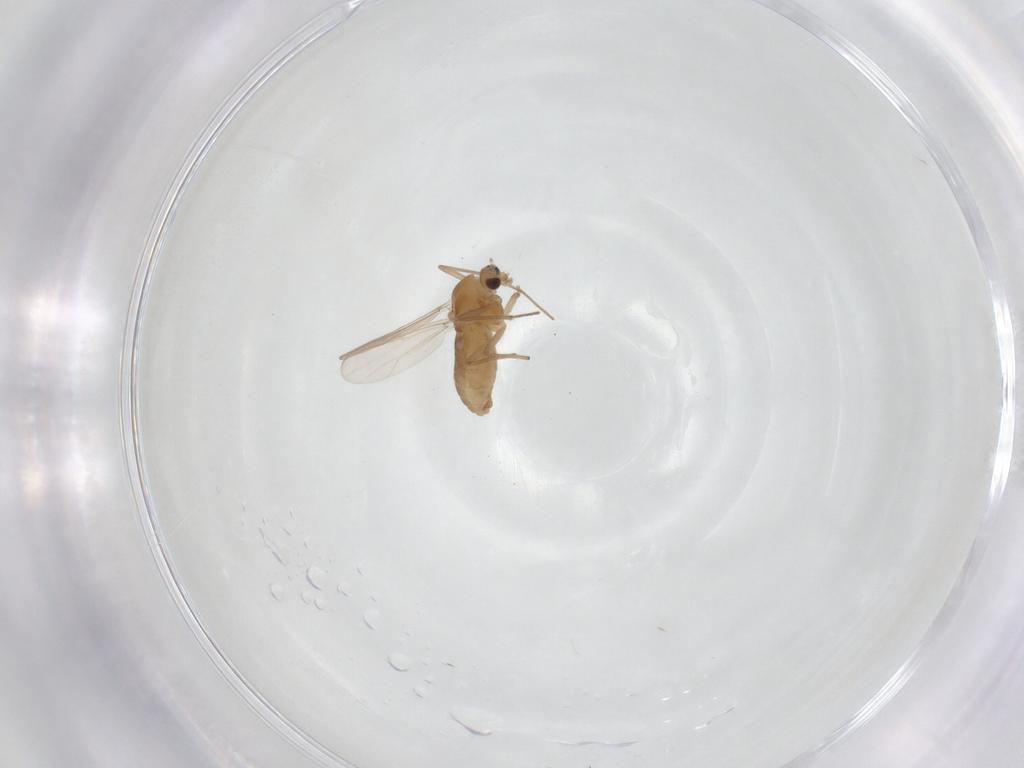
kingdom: Animalia
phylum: Arthropoda
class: Insecta
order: Diptera
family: Chironomidae
